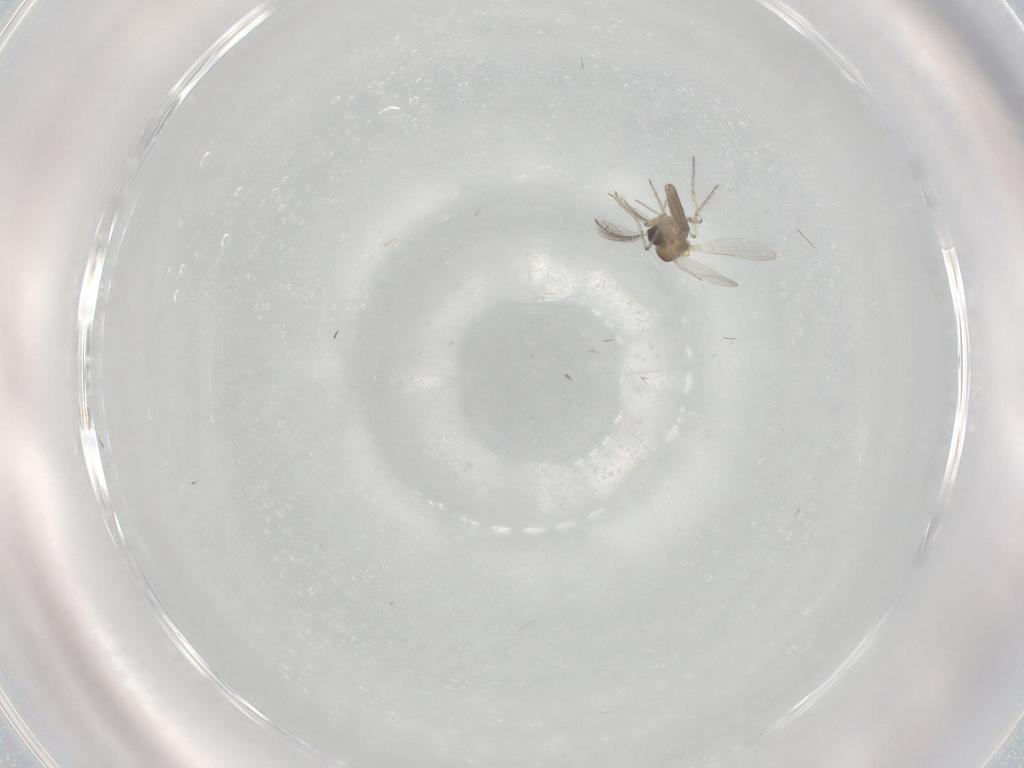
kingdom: Animalia
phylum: Arthropoda
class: Insecta
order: Diptera
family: Ceratopogonidae
